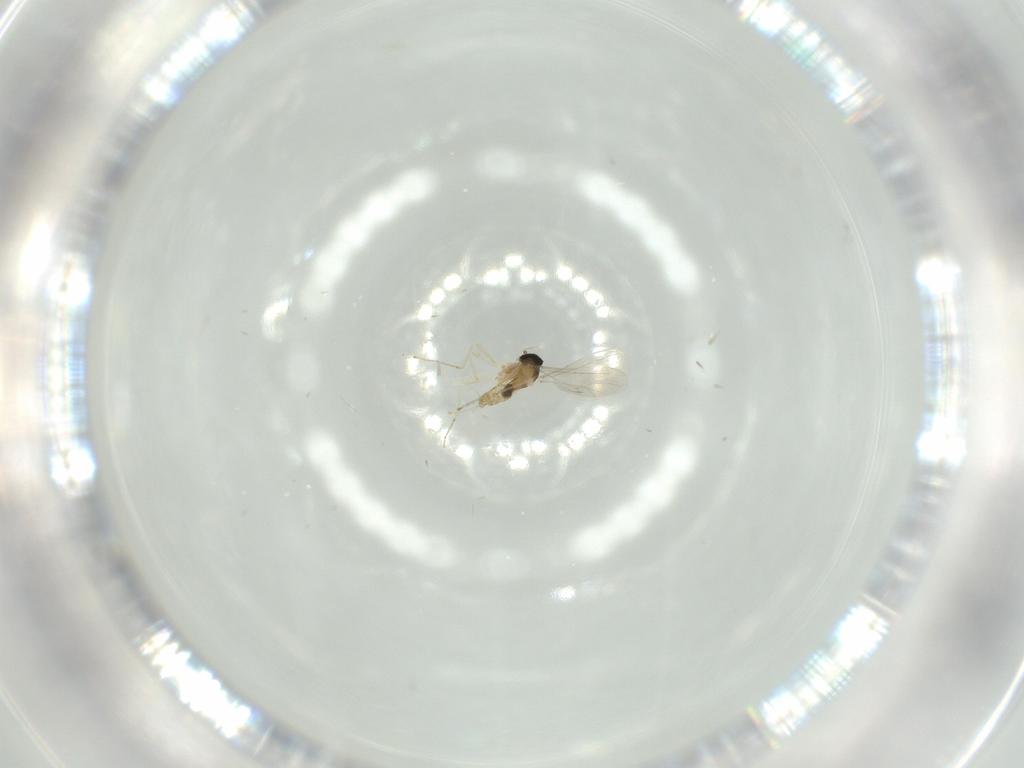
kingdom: Animalia
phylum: Arthropoda
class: Insecta
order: Diptera
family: Cecidomyiidae
